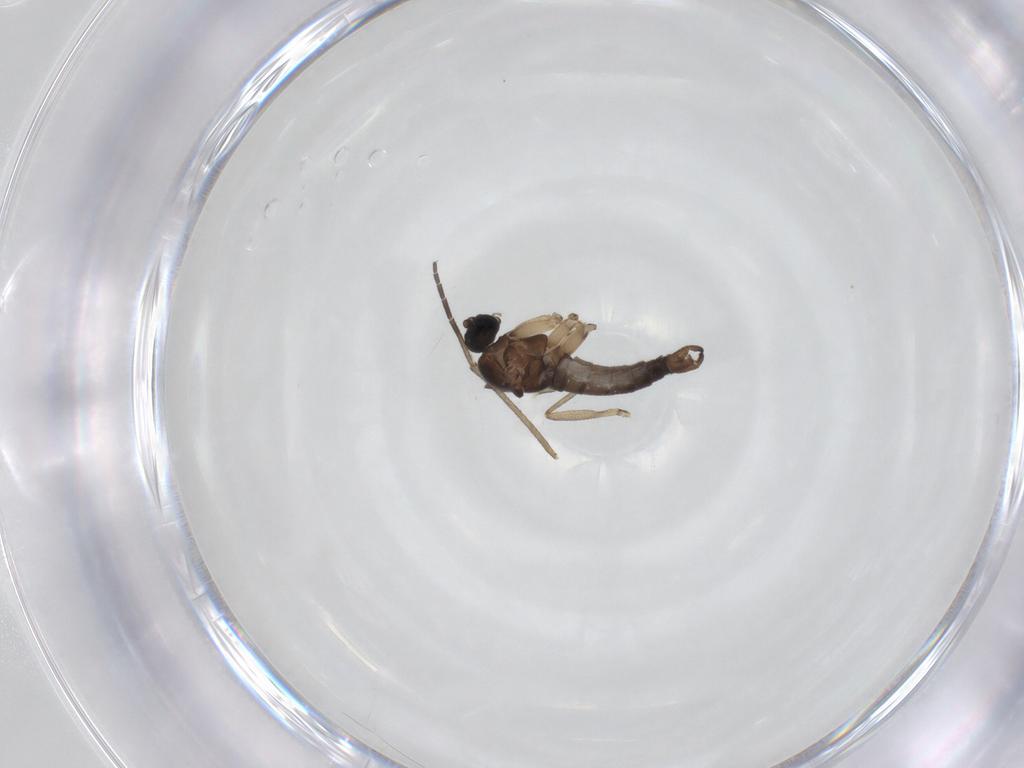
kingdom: Animalia
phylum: Arthropoda
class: Insecta
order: Diptera
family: Sciaridae
